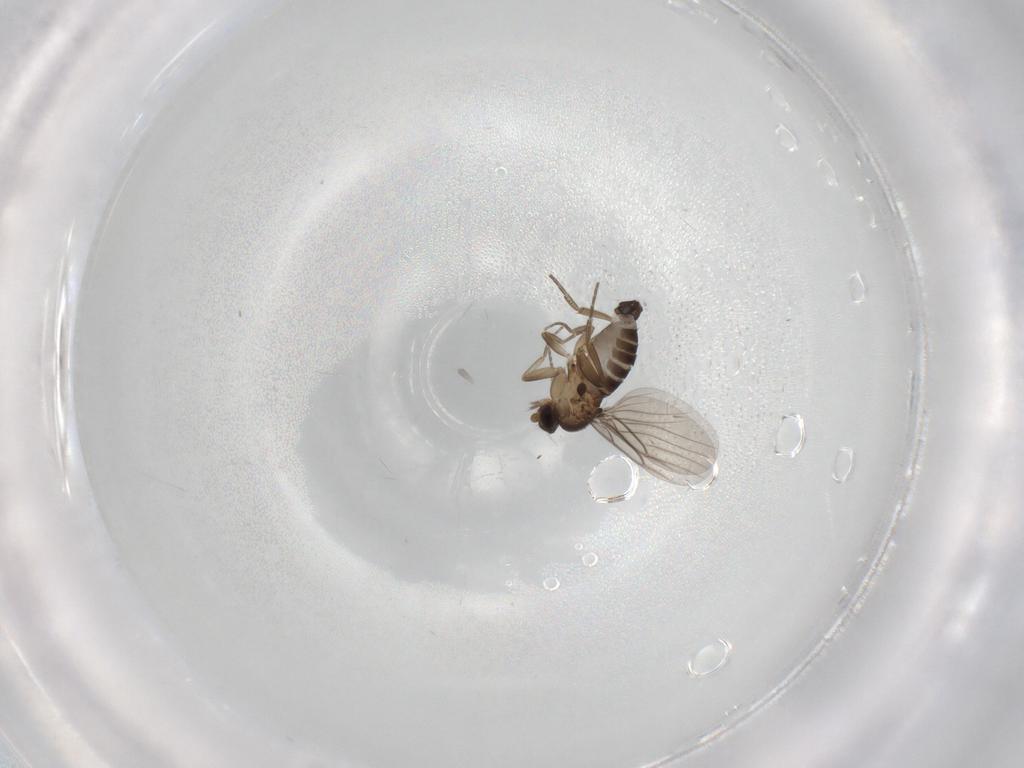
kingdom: Animalia
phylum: Arthropoda
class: Insecta
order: Diptera
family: Phoridae
